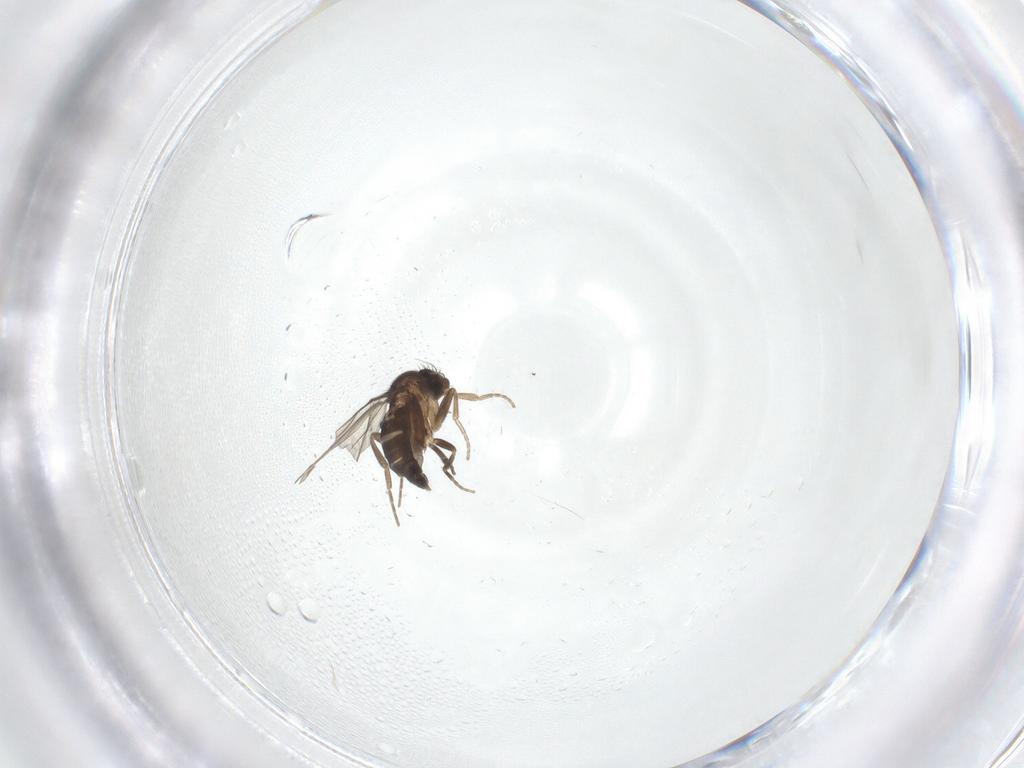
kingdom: Animalia
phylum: Arthropoda
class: Insecta
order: Diptera
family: Phoridae
